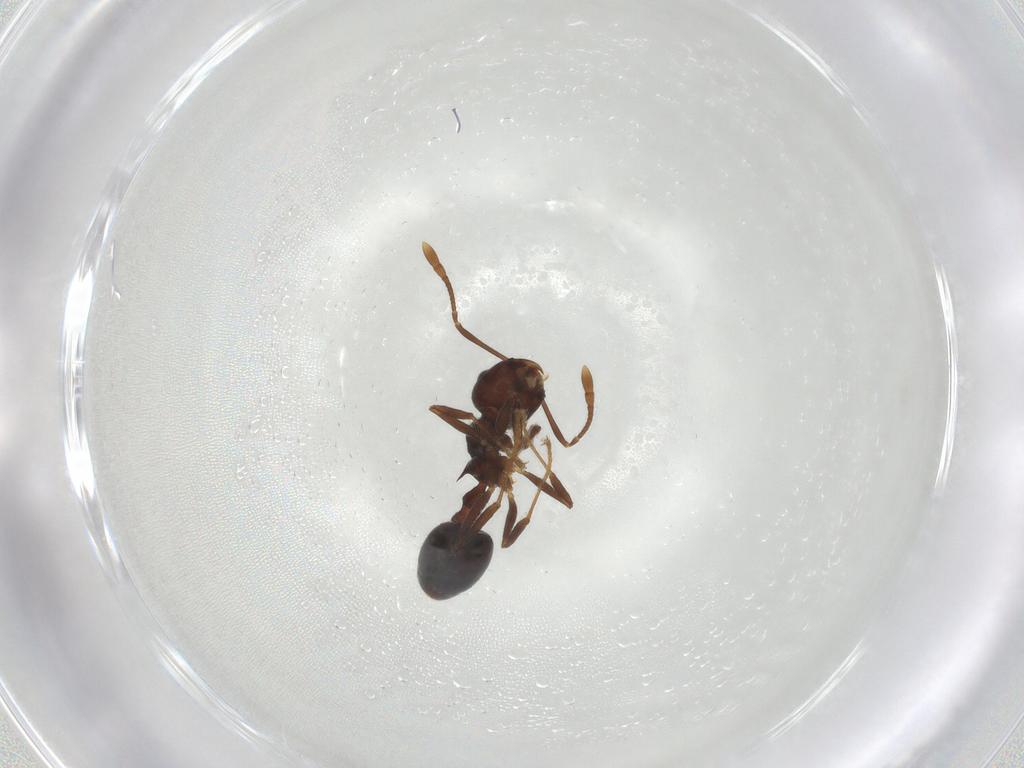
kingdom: Animalia
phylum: Arthropoda
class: Insecta
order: Hymenoptera
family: Formicidae
